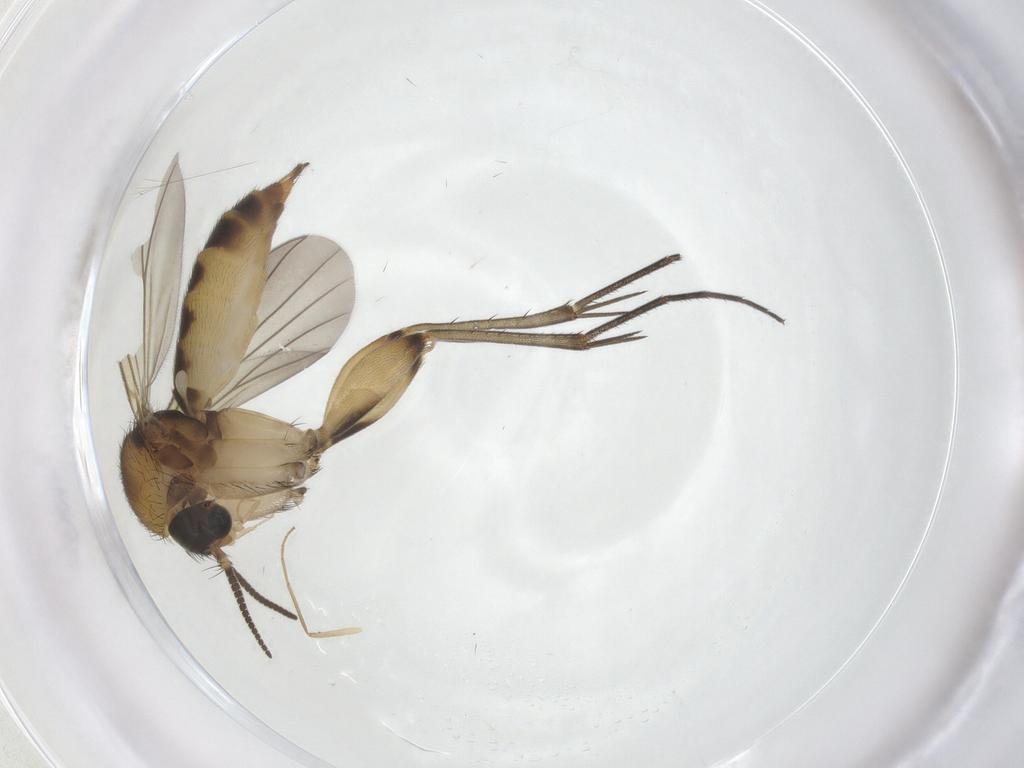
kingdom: Animalia
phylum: Arthropoda
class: Insecta
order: Diptera
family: Mycetophilidae
